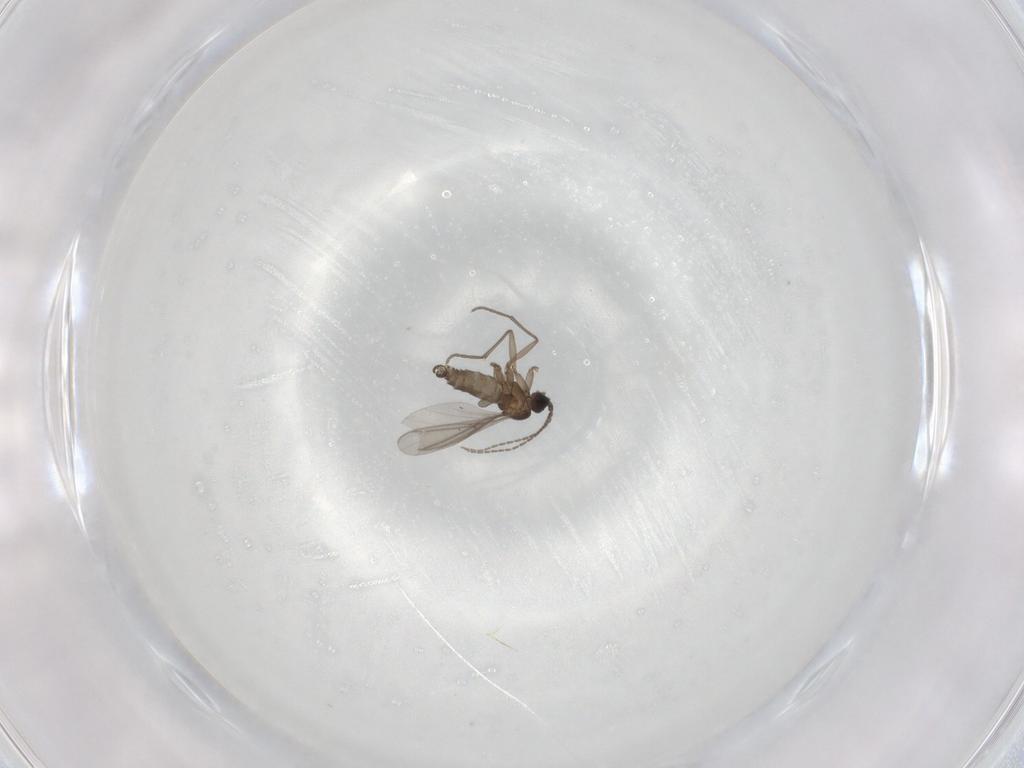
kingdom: Animalia
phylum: Arthropoda
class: Insecta
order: Diptera
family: Sciaridae
